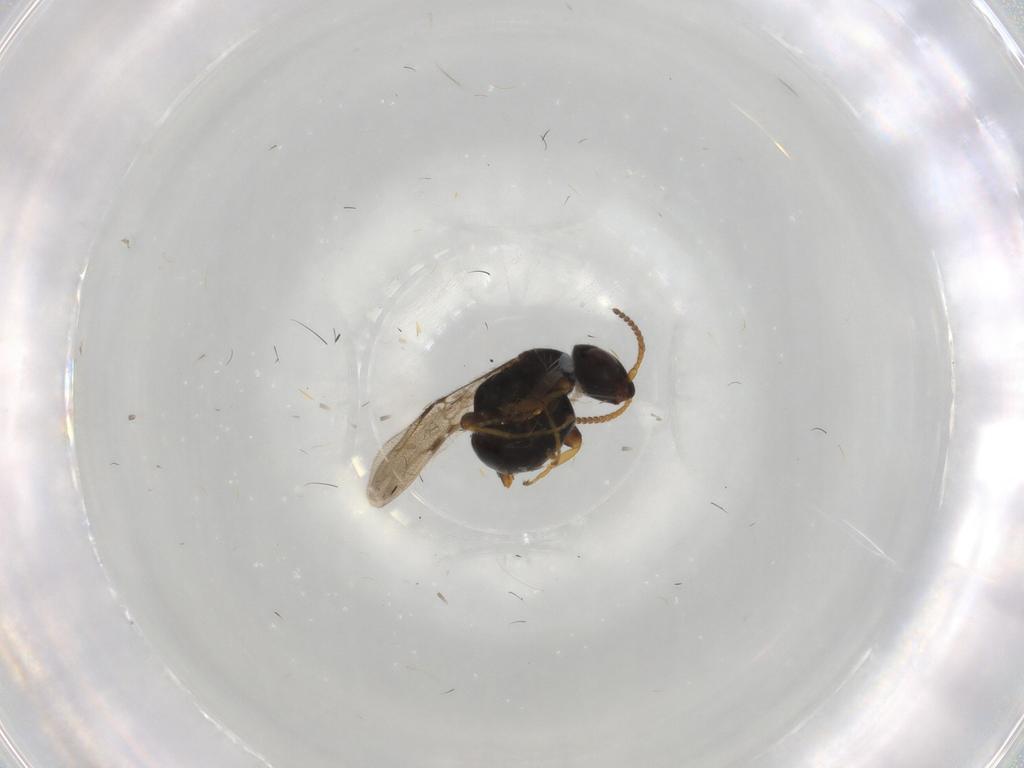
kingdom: Animalia
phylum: Arthropoda
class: Insecta
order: Hymenoptera
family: Bethylidae
